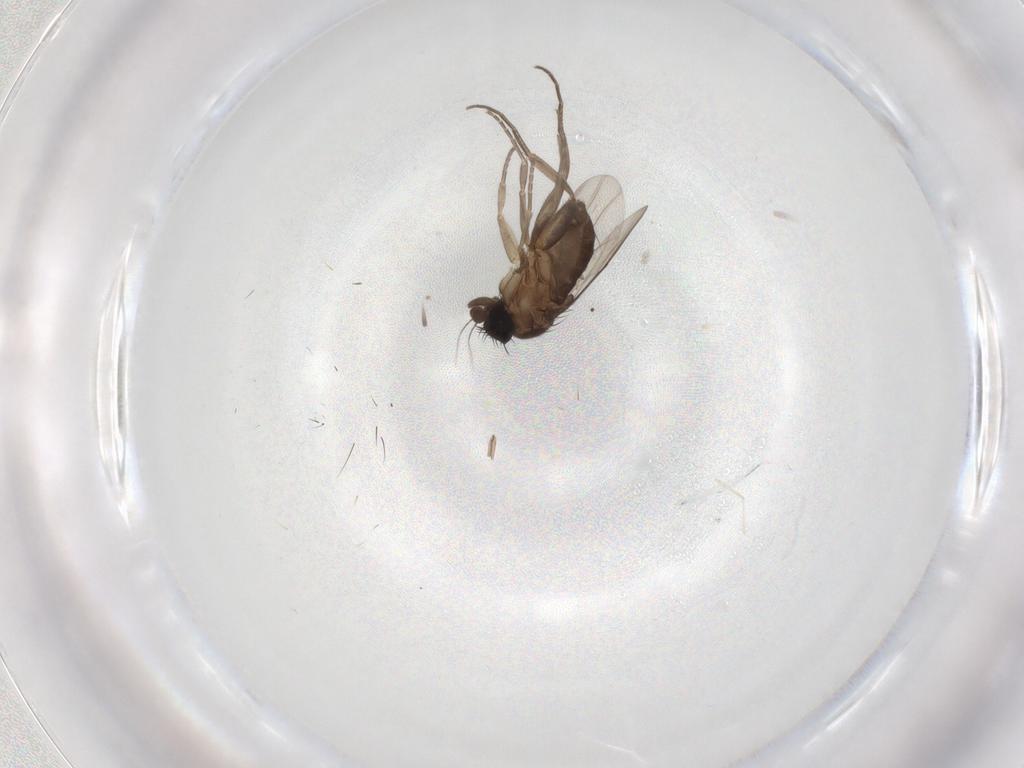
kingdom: Animalia
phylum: Arthropoda
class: Insecta
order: Diptera
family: Phoridae
